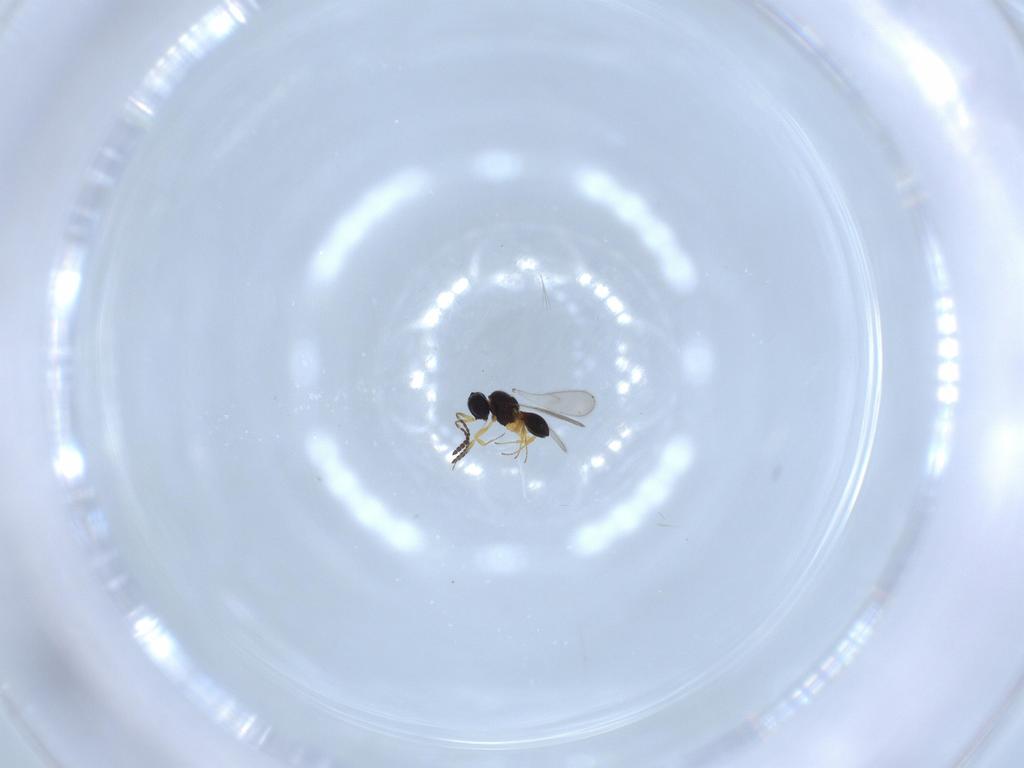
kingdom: Animalia
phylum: Arthropoda
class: Insecta
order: Hymenoptera
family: Scelionidae
